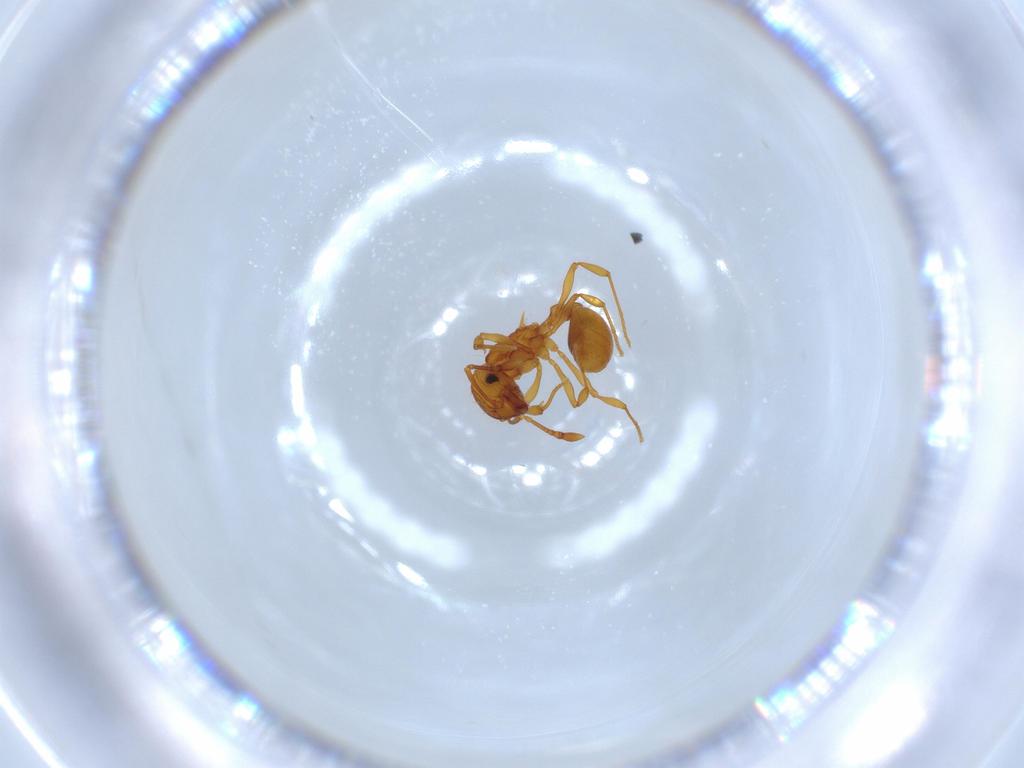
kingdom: Animalia
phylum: Arthropoda
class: Insecta
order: Hymenoptera
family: Formicidae
